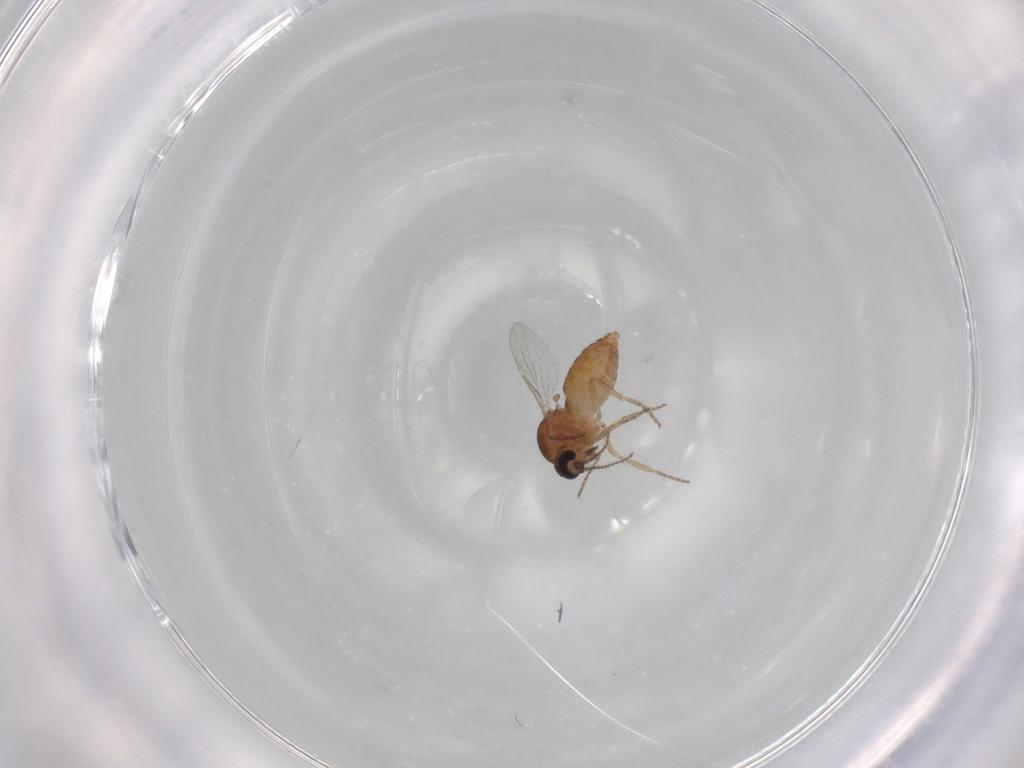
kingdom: Animalia
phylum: Arthropoda
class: Insecta
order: Diptera
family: Ceratopogonidae
